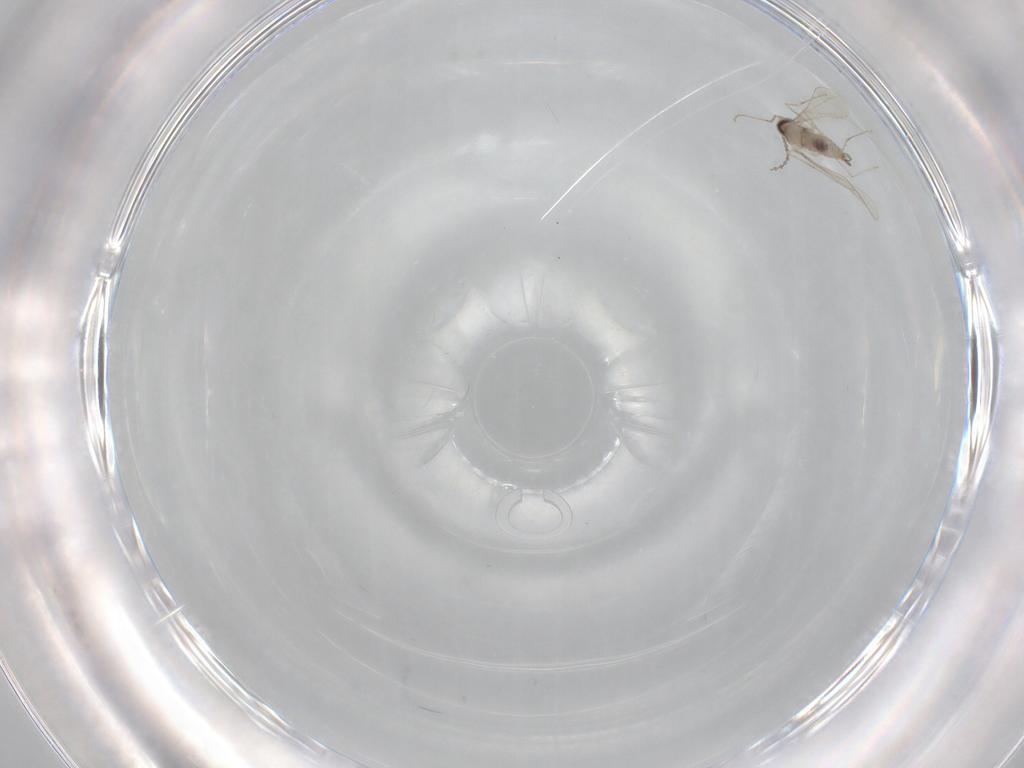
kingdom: Animalia
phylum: Arthropoda
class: Insecta
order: Diptera
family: Cecidomyiidae
